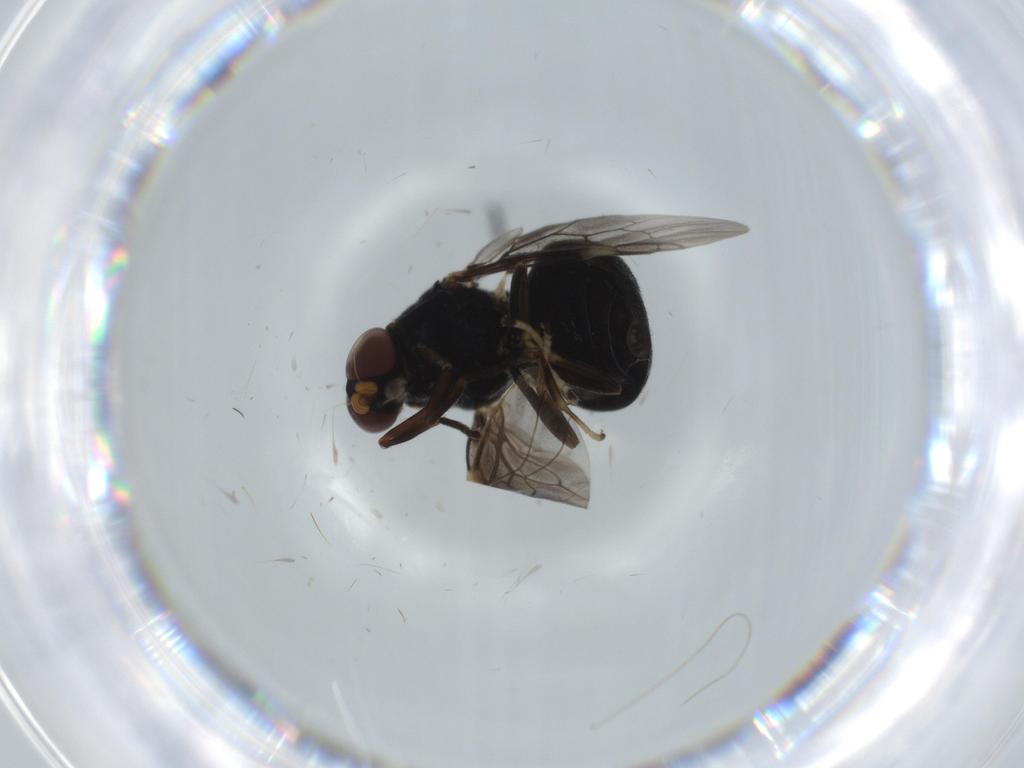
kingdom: Animalia
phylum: Arthropoda
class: Insecta
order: Diptera
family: Stratiomyidae
